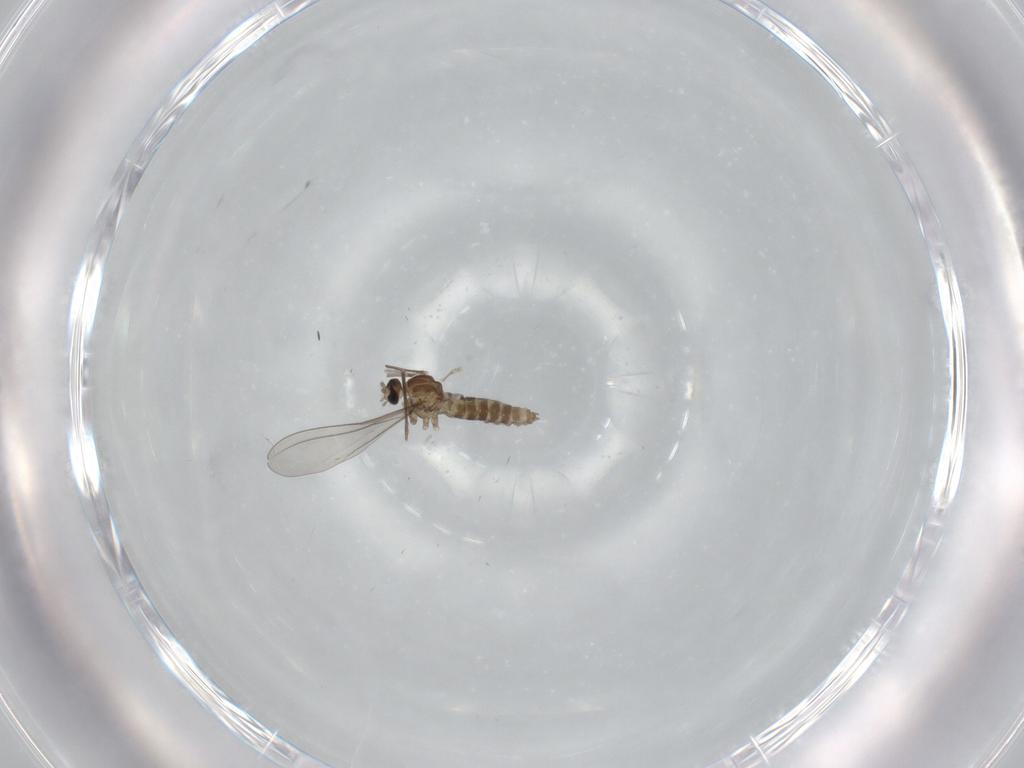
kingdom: Animalia
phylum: Arthropoda
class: Insecta
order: Diptera
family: Cecidomyiidae
